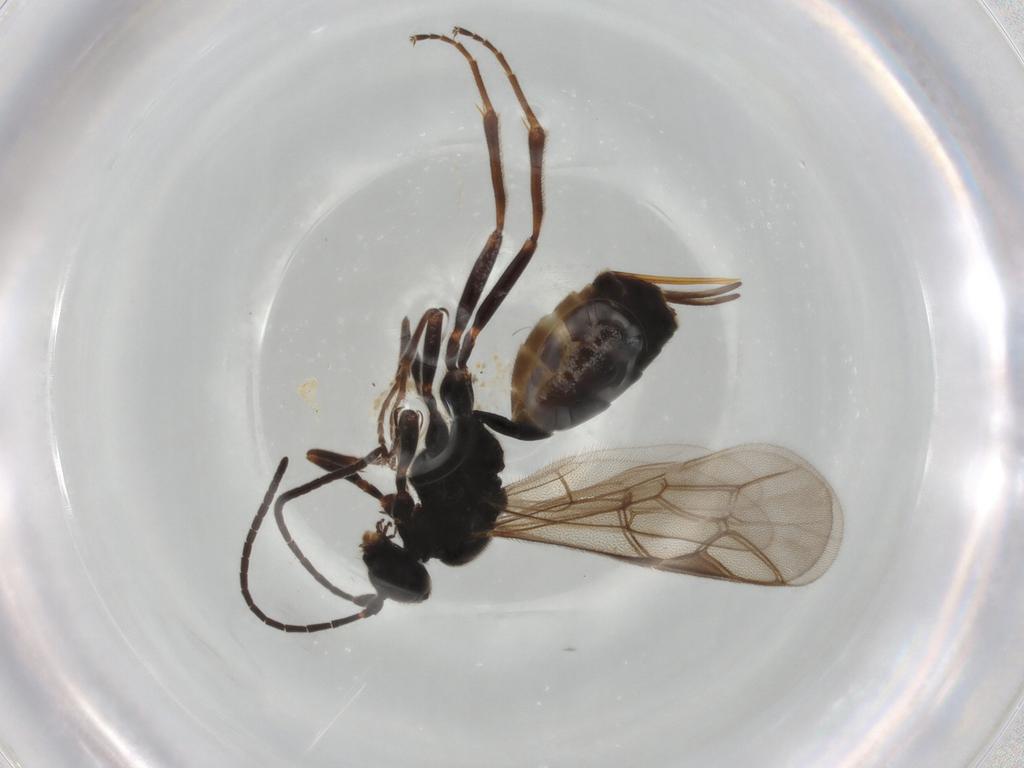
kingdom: Animalia
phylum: Arthropoda
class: Insecta
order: Hymenoptera
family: Ichneumonidae
